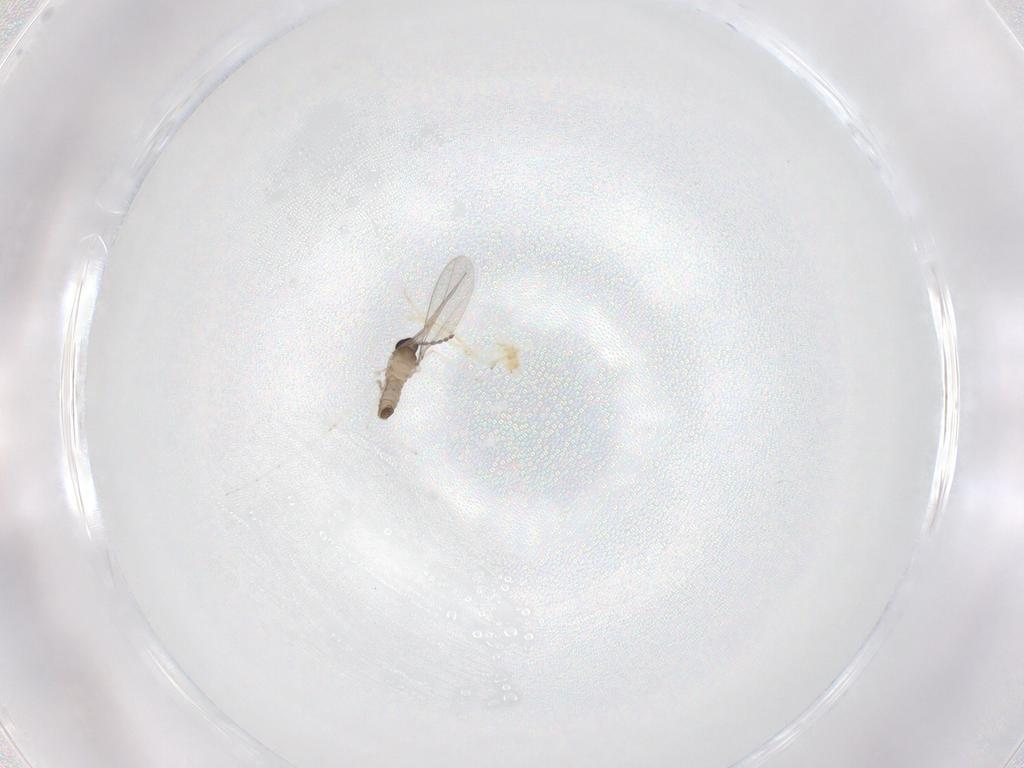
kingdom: Animalia
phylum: Arthropoda
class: Insecta
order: Diptera
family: Cecidomyiidae
